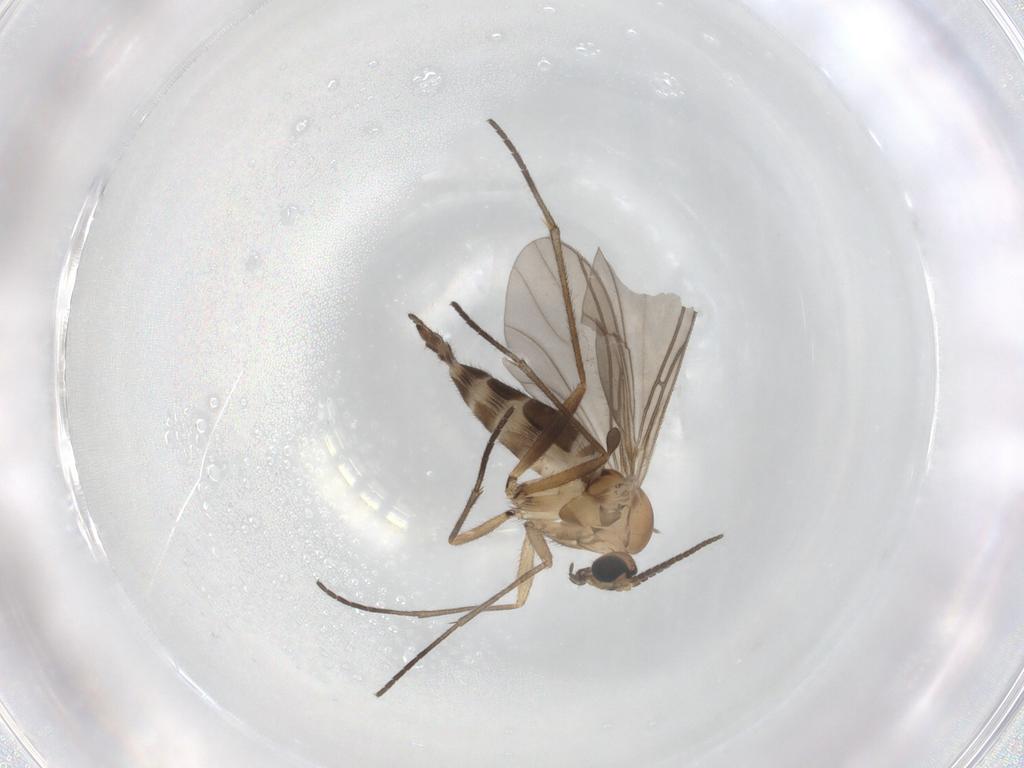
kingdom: Animalia
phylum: Arthropoda
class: Insecta
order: Diptera
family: Sciaridae
